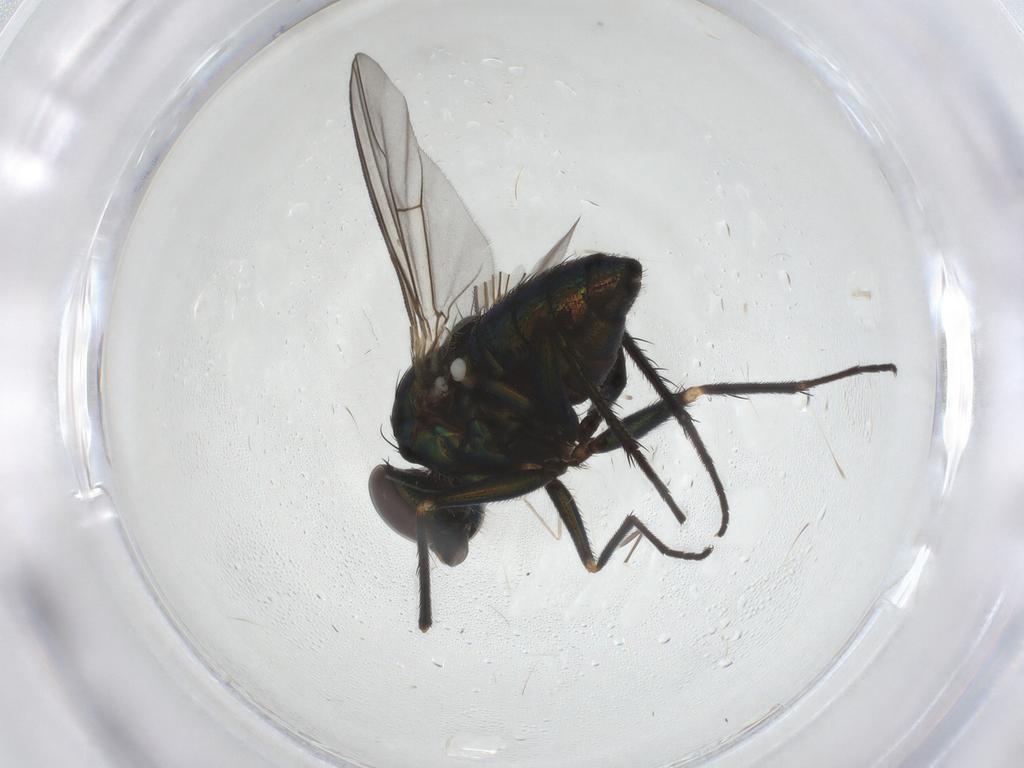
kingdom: Animalia
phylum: Arthropoda
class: Insecta
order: Diptera
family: Dolichopodidae
